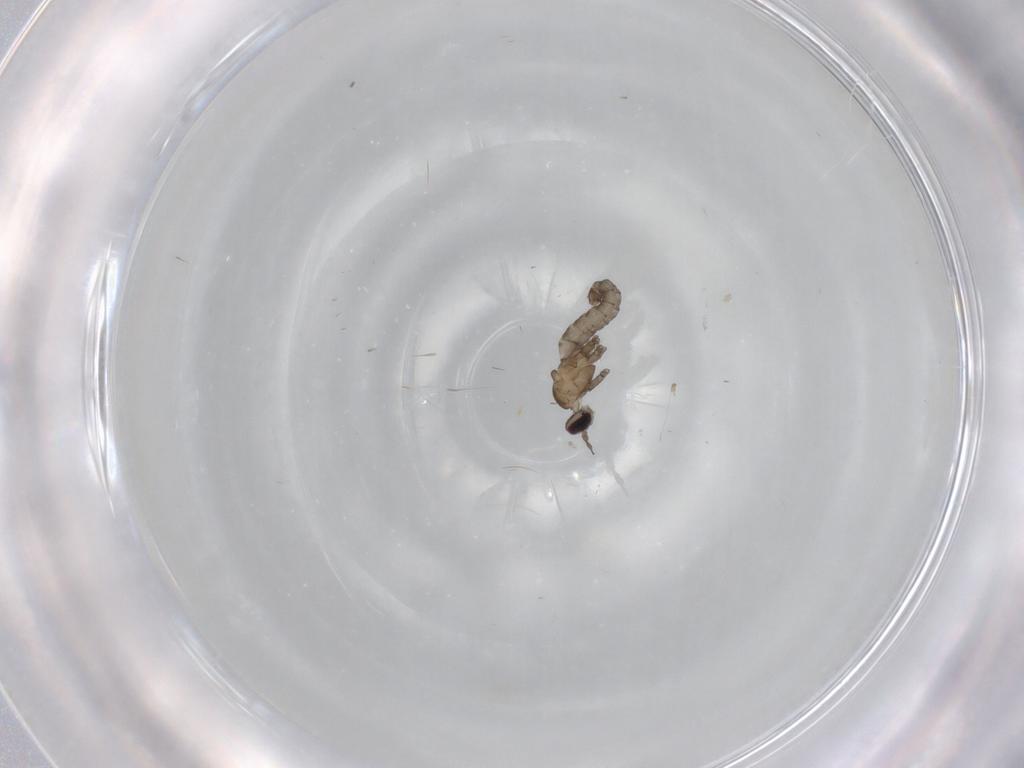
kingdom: Animalia
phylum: Arthropoda
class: Insecta
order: Diptera
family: Cecidomyiidae
